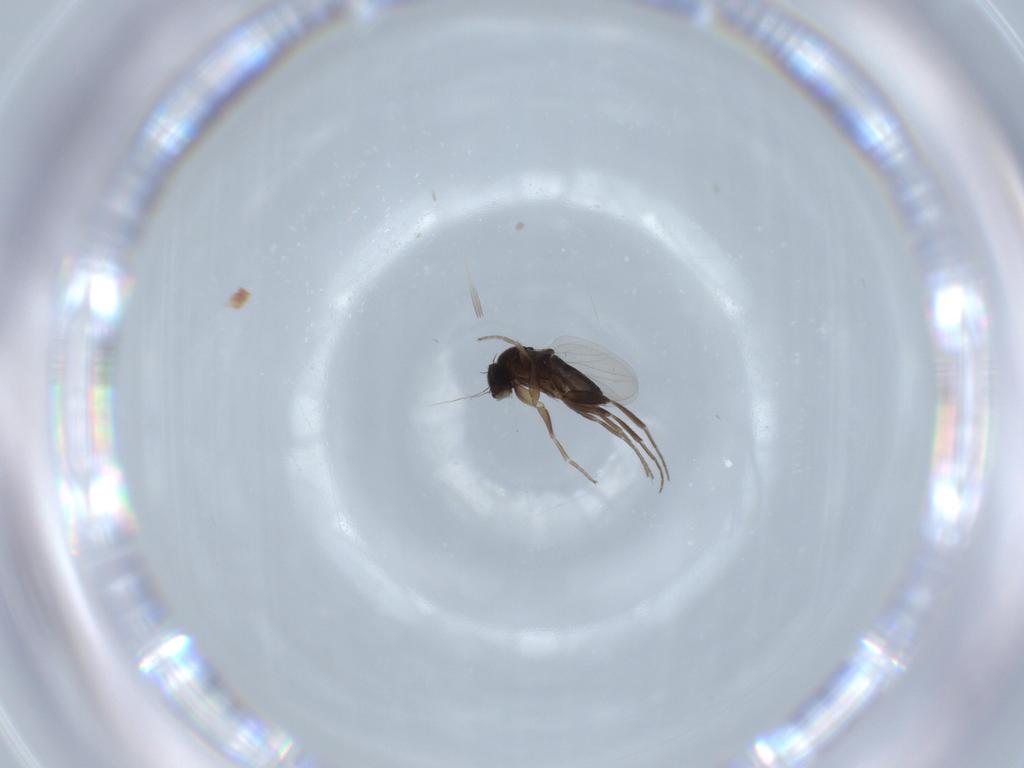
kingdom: Animalia
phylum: Arthropoda
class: Insecta
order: Diptera
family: Phoridae
